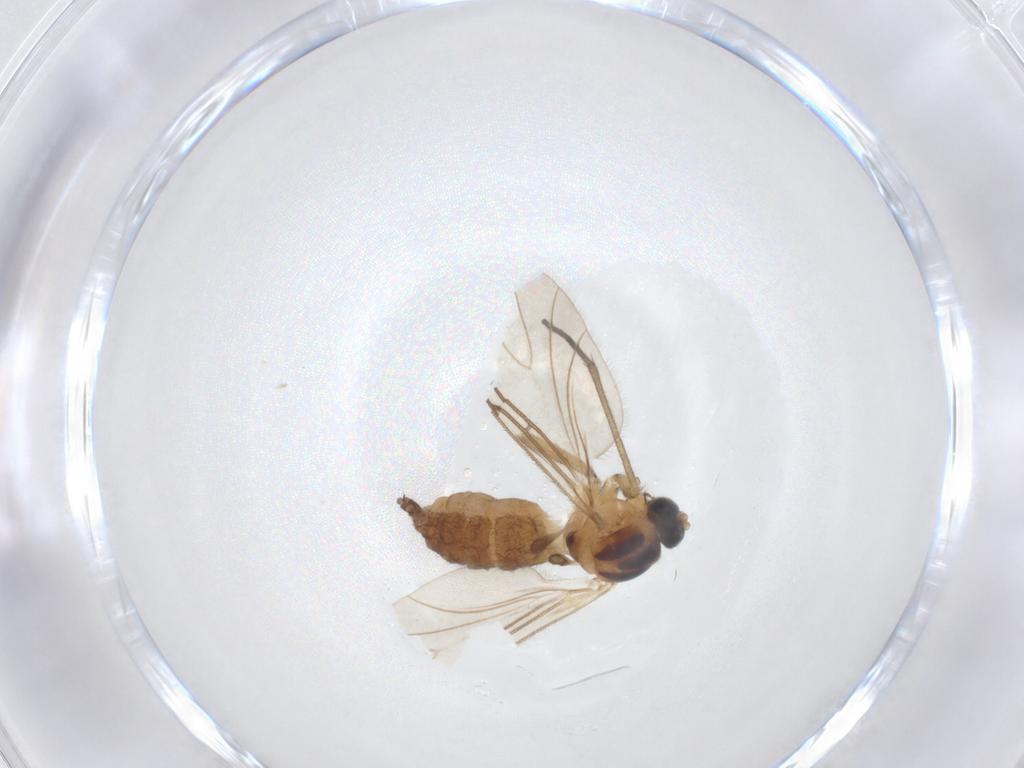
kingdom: Animalia
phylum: Arthropoda
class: Insecta
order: Diptera
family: Sciaridae
